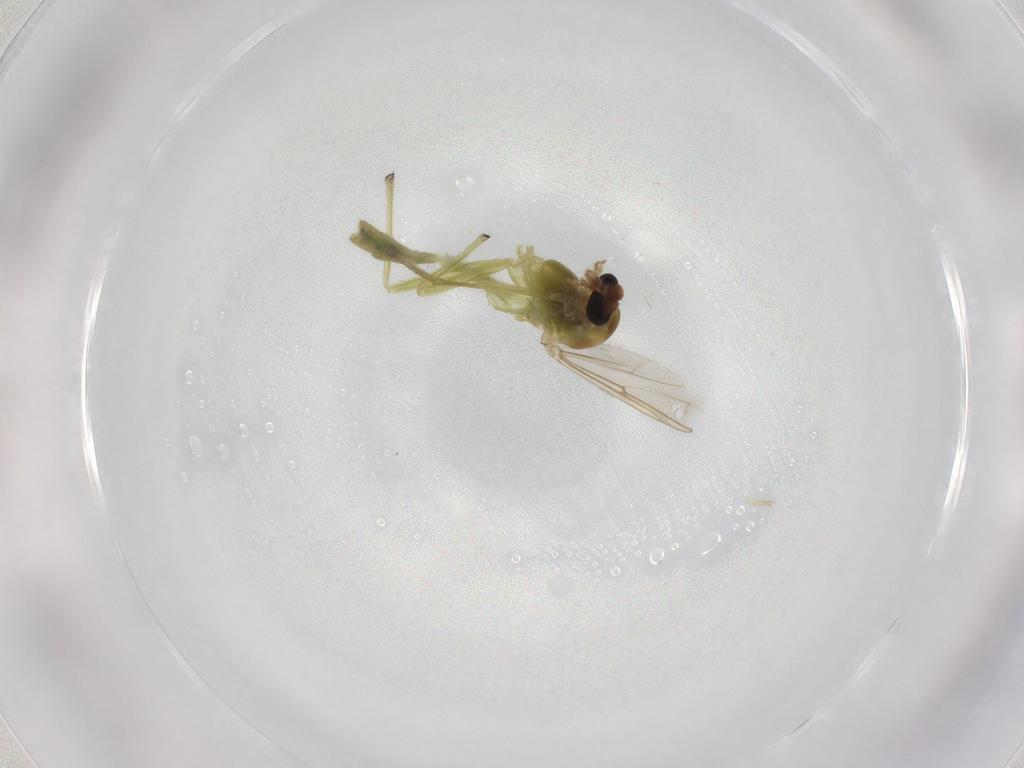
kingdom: Animalia
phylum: Arthropoda
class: Insecta
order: Diptera
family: Chironomidae
